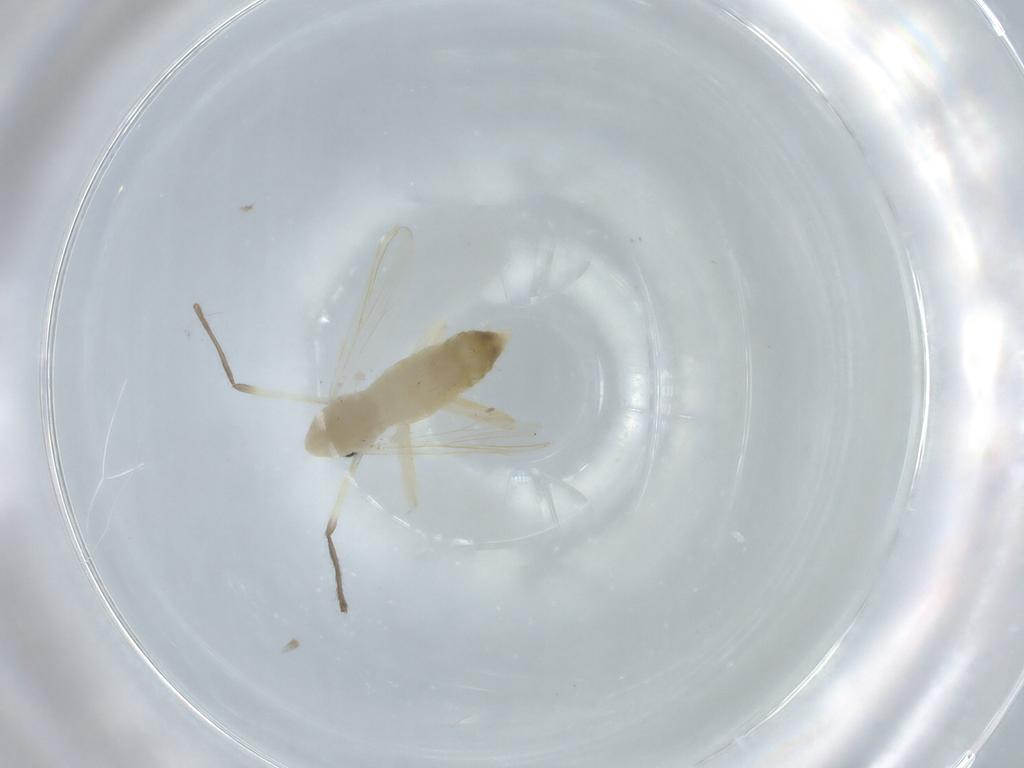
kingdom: Animalia
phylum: Arthropoda
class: Insecta
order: Diptera
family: Chironomidae
